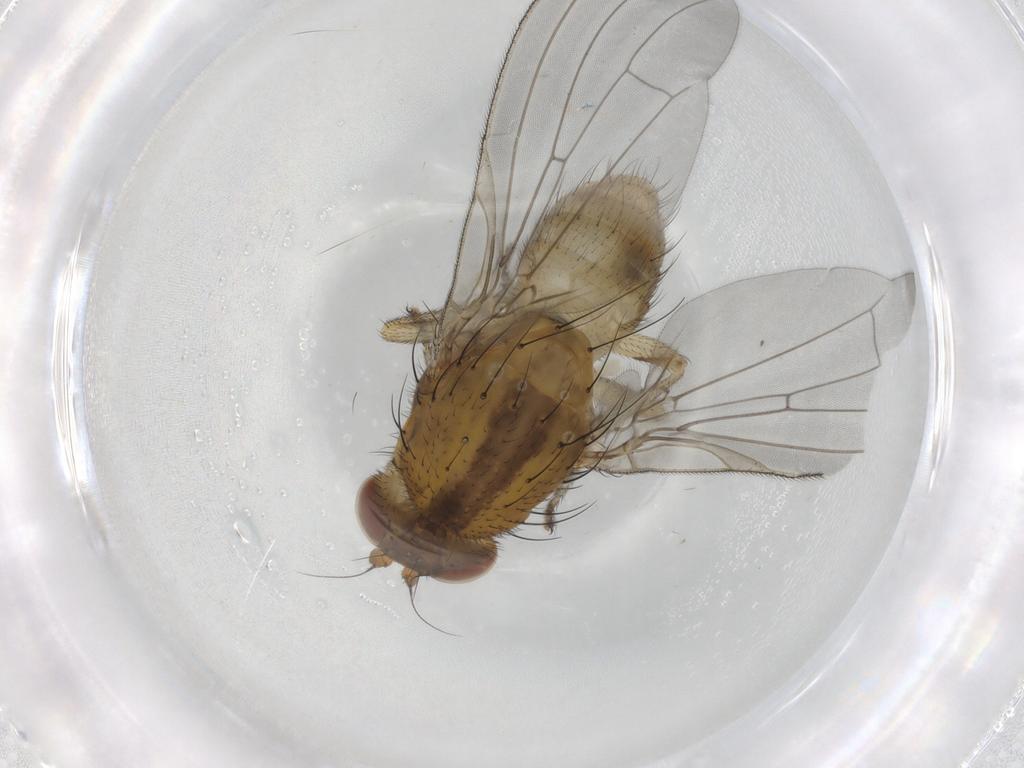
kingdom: Animalia
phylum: Arthropoda
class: Insecta
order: Diptera
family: Lauxaniidae
